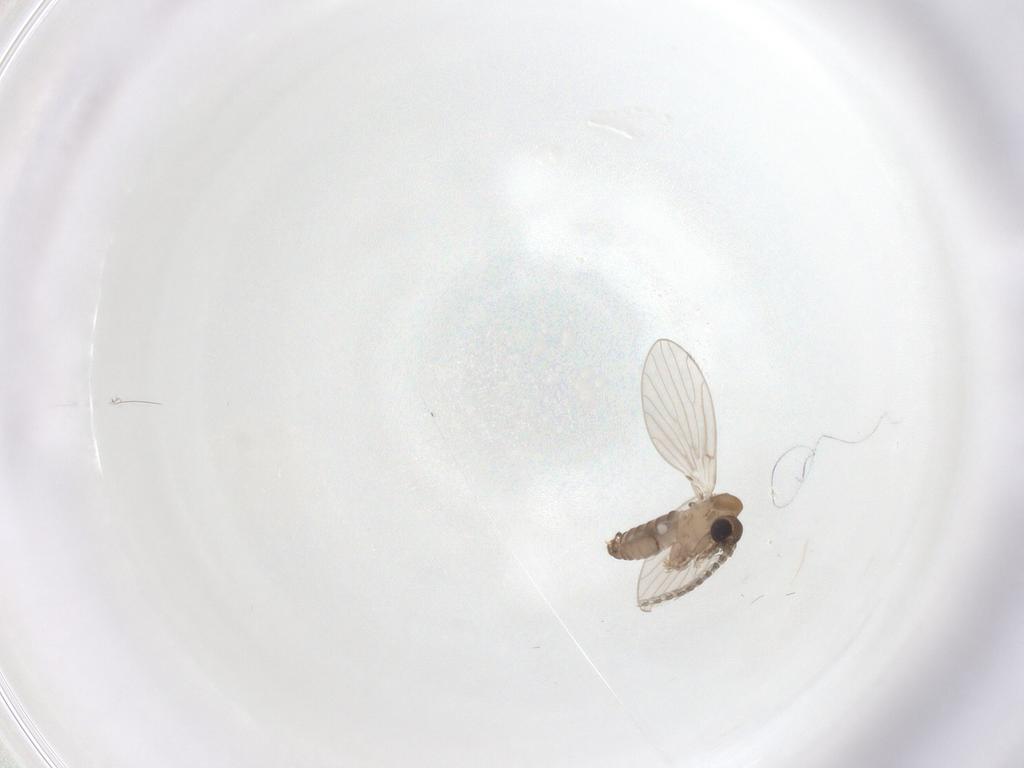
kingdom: Animalia
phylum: Arthropoda
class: Insecta
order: Diptera
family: Psychodidae
